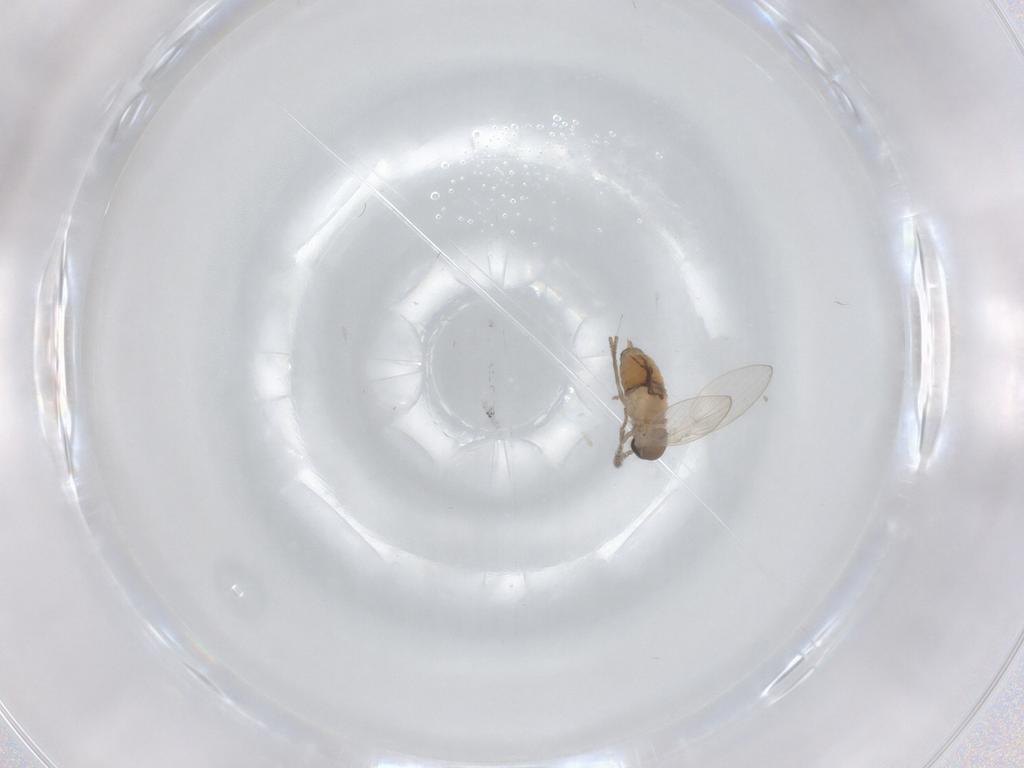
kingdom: Animalia
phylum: Arthropoda
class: Insecta
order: Diptera
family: Psychodidae
